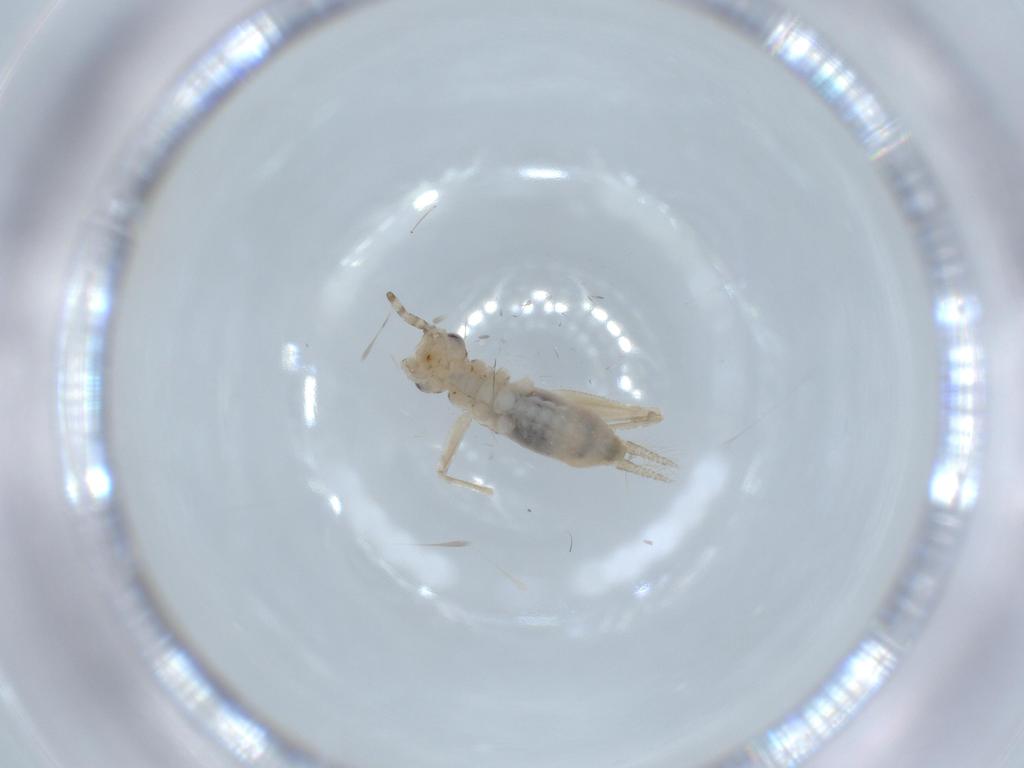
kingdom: Animalia
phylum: Arthropoda
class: Insecta
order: Orthoptera
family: Trigonidiidae
